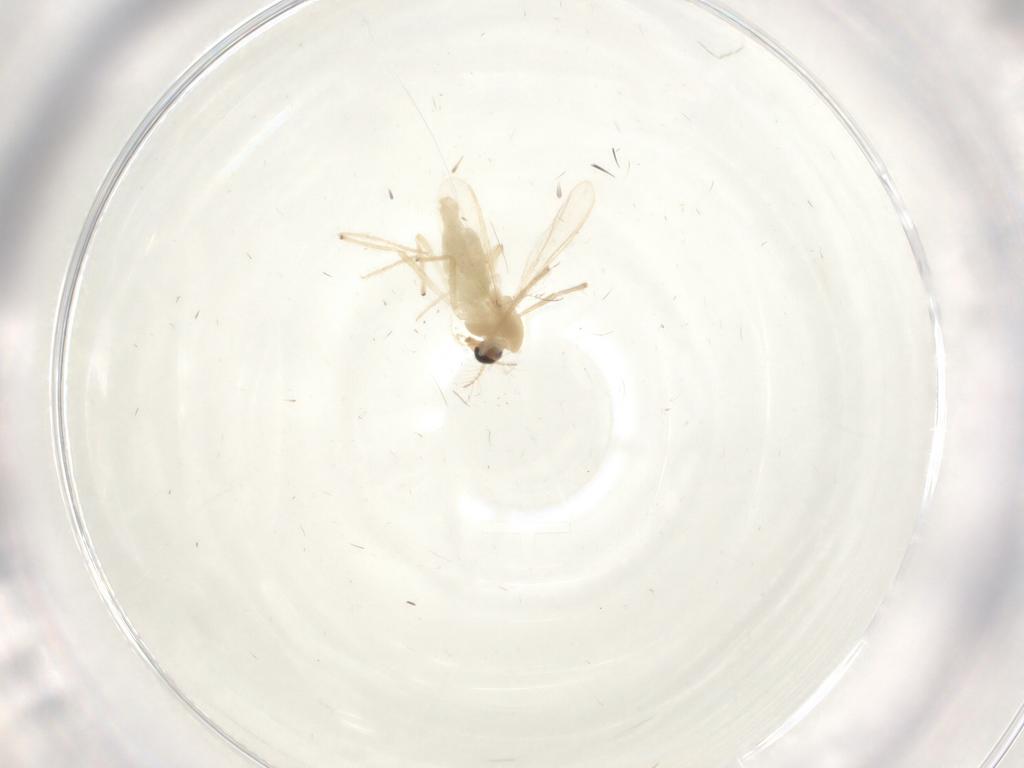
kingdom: Animalia
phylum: Arthropoda
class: Insecta
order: Diptera
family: Chironomidae
